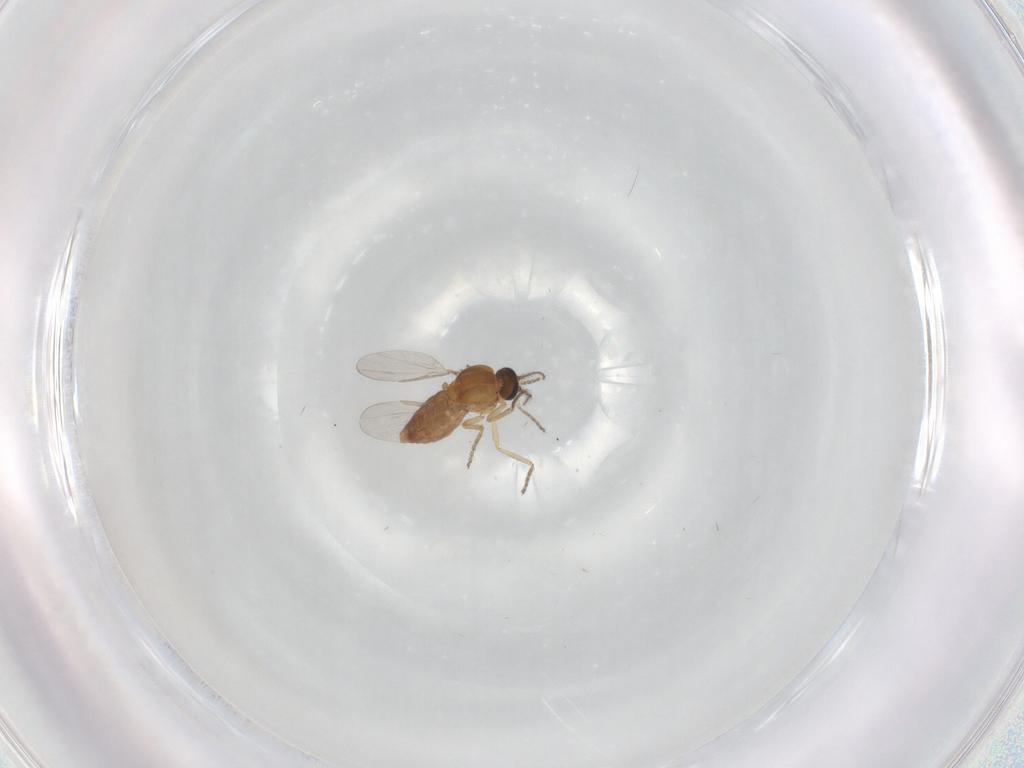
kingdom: Animalia
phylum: Arthropoda
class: Insecta
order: Diptera
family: Limoniidae
